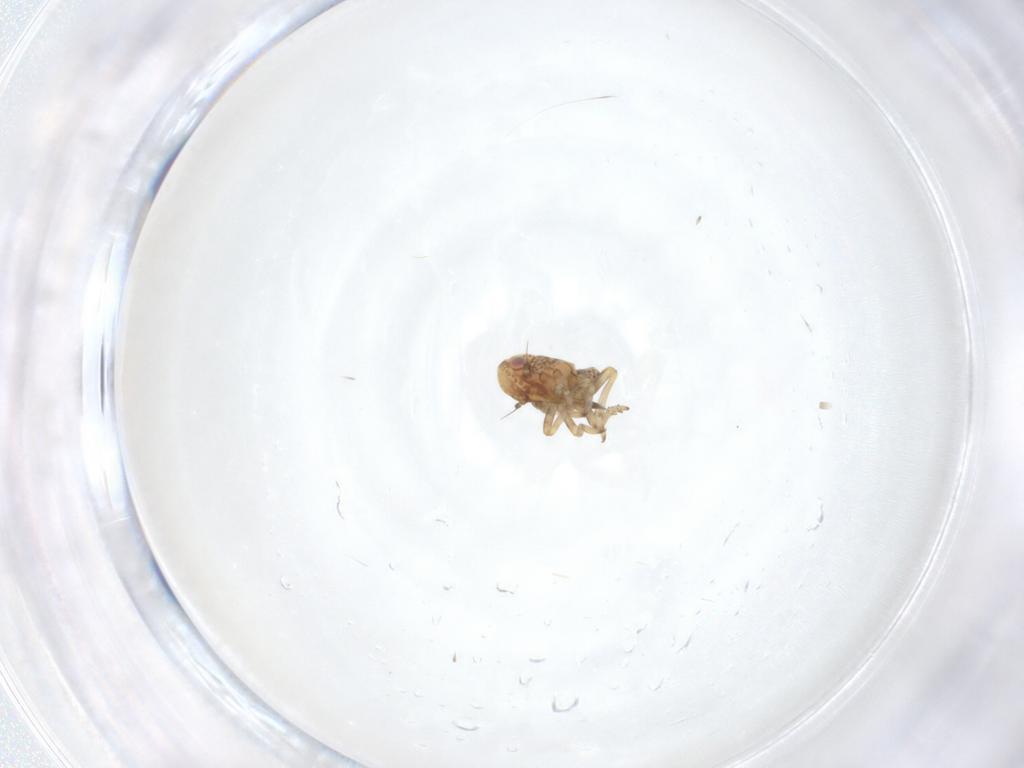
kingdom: Animalia
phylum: Arthropoda
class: Insecta
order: Hemiptera
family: Tropiduchidae
